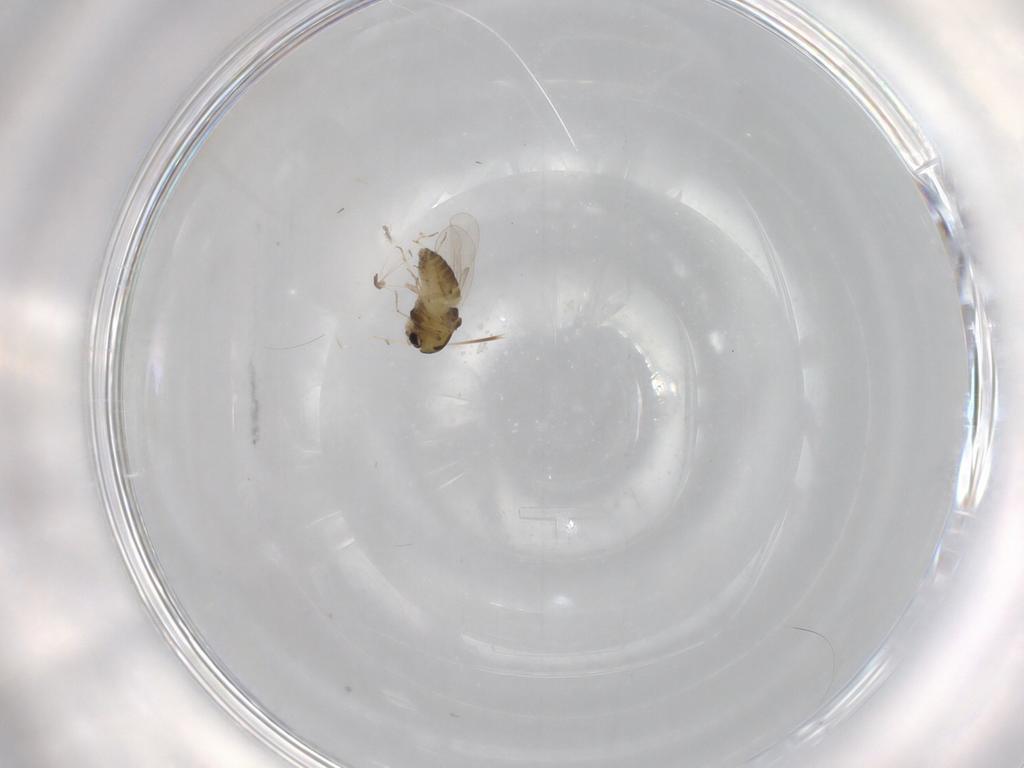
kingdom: Animalia
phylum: Arthropoda
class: Insecta
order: Diptera
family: Chironomidae
